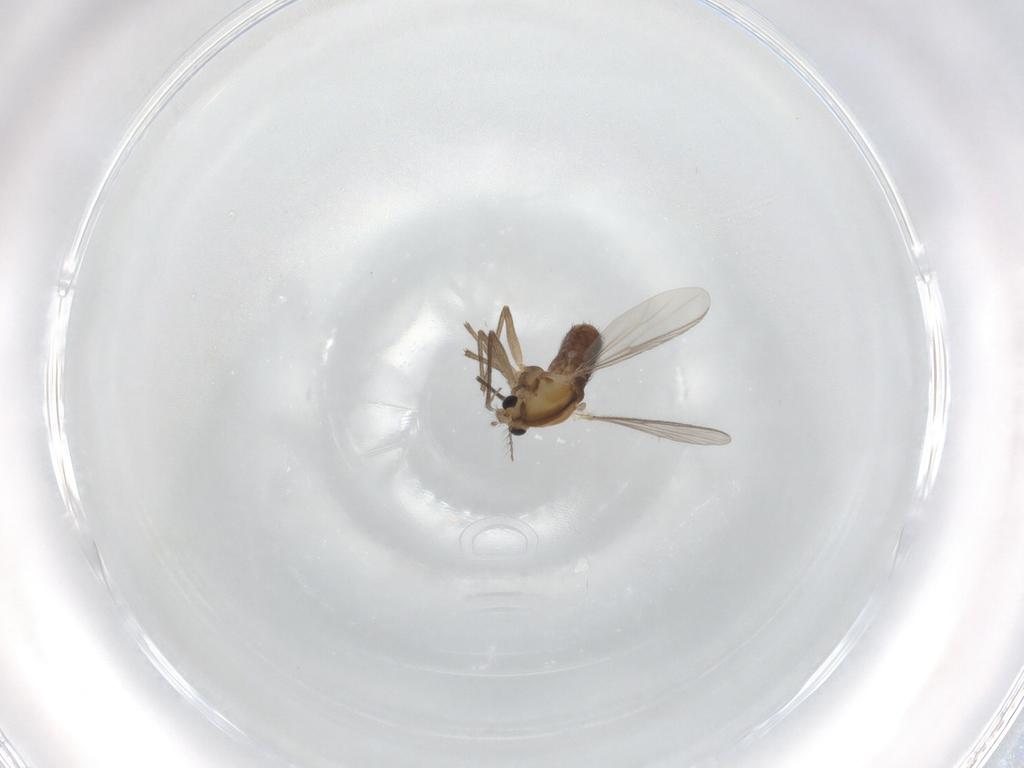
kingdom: Animalia
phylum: Arthropoda
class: Insecta
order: Diptera
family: Chironomidae
